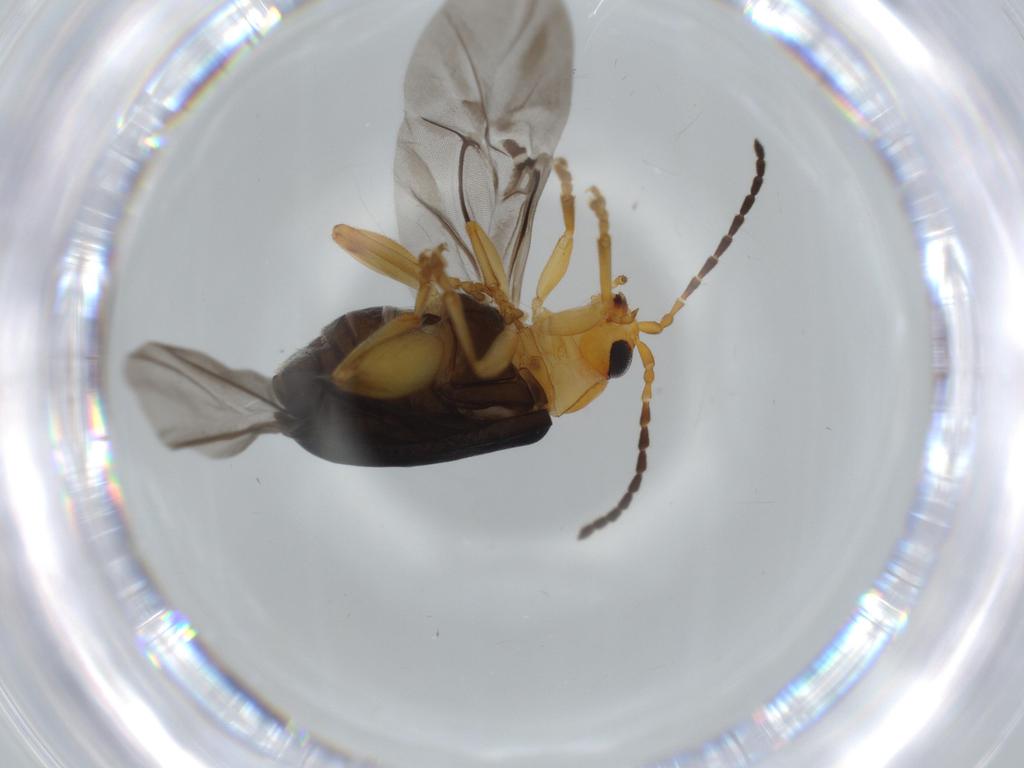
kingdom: Animalia
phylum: Arthropoda
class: Insecta
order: Coleoptera
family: Chrysomelidae
